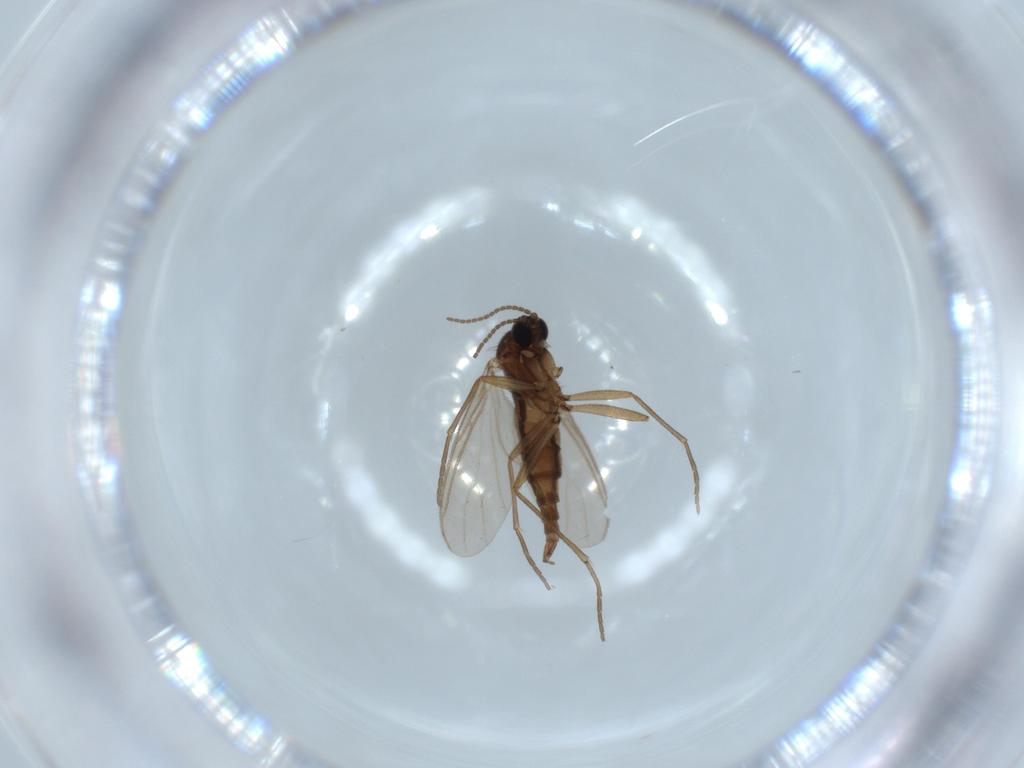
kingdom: Animalia
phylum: Arthropoda
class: Insecta
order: Diptera
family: Sciaridae
